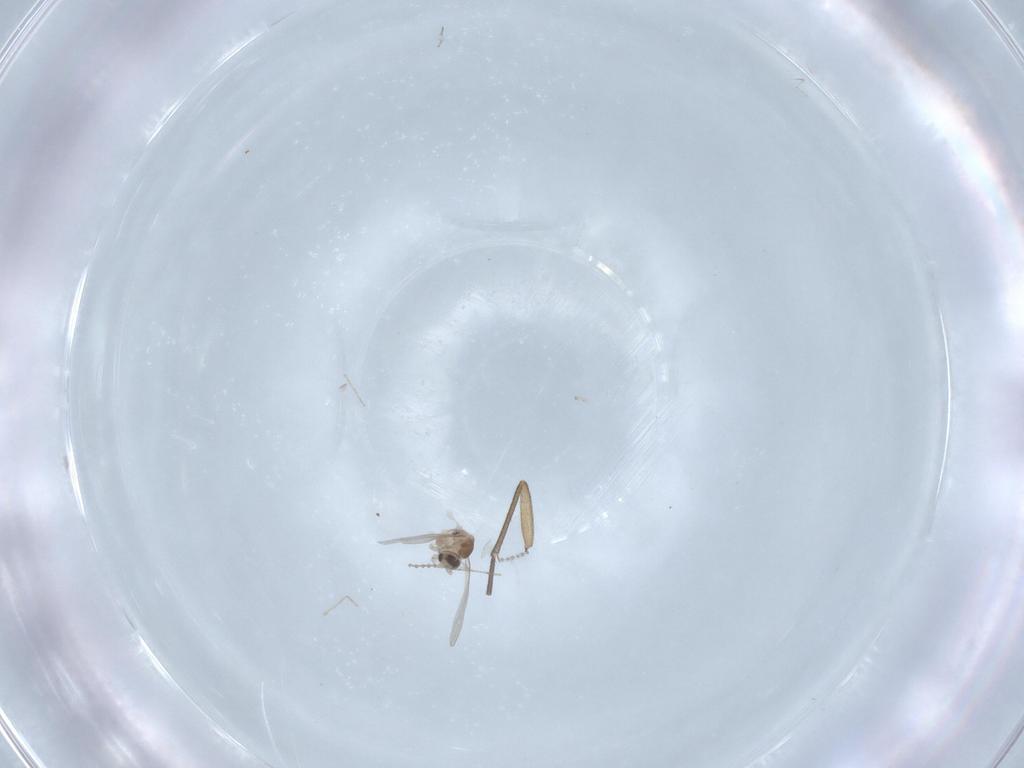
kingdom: Animalia
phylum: Arthropoda
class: Insecta
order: Diptera
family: Cecidomyiidae
